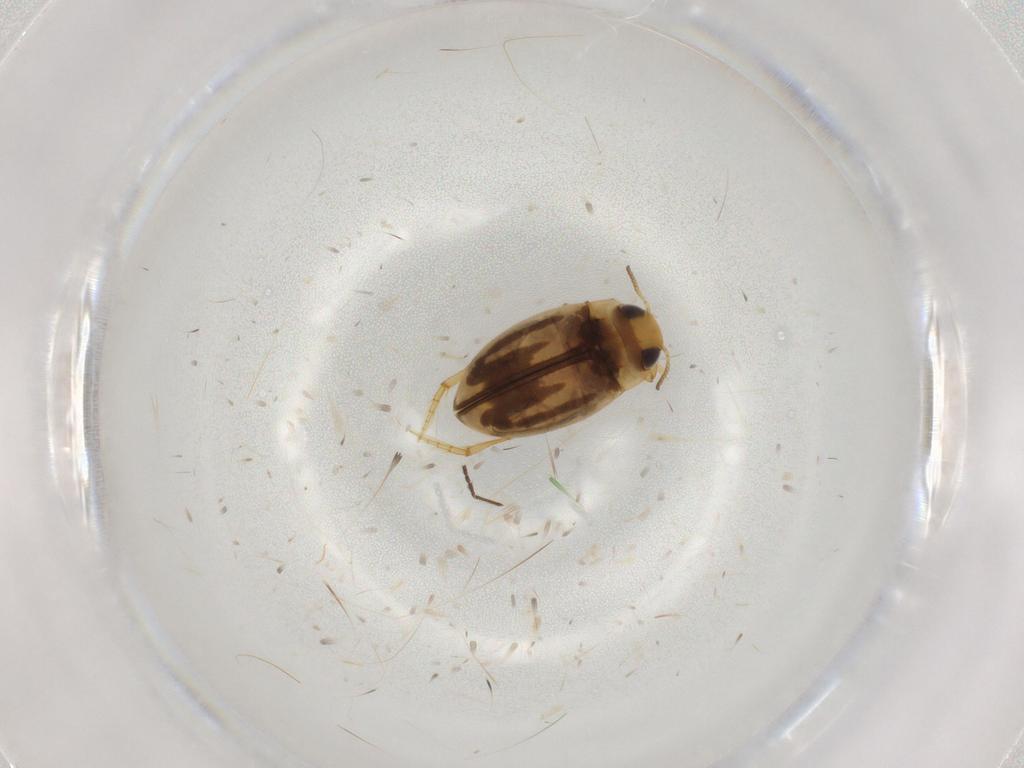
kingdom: Animalia
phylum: Arthropoda
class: Insecta
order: Coleoptera
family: Dytiscidae
